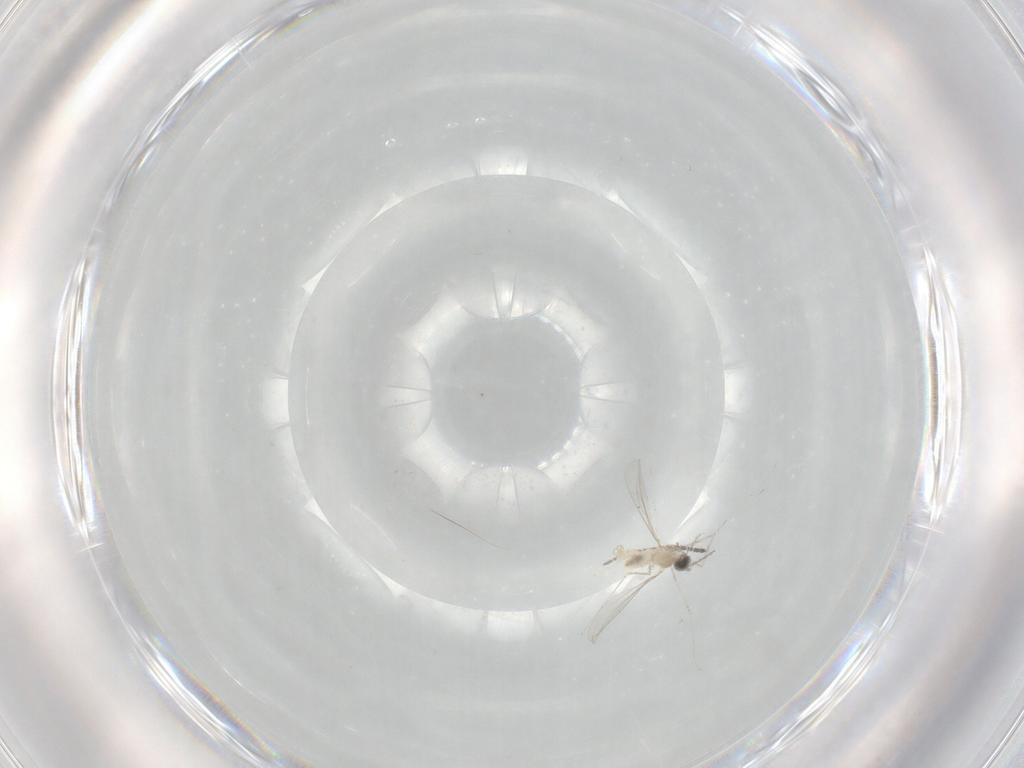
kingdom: Animalia
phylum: Arthropoda
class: Insecta
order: Diptera
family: Cecidomyiidae
